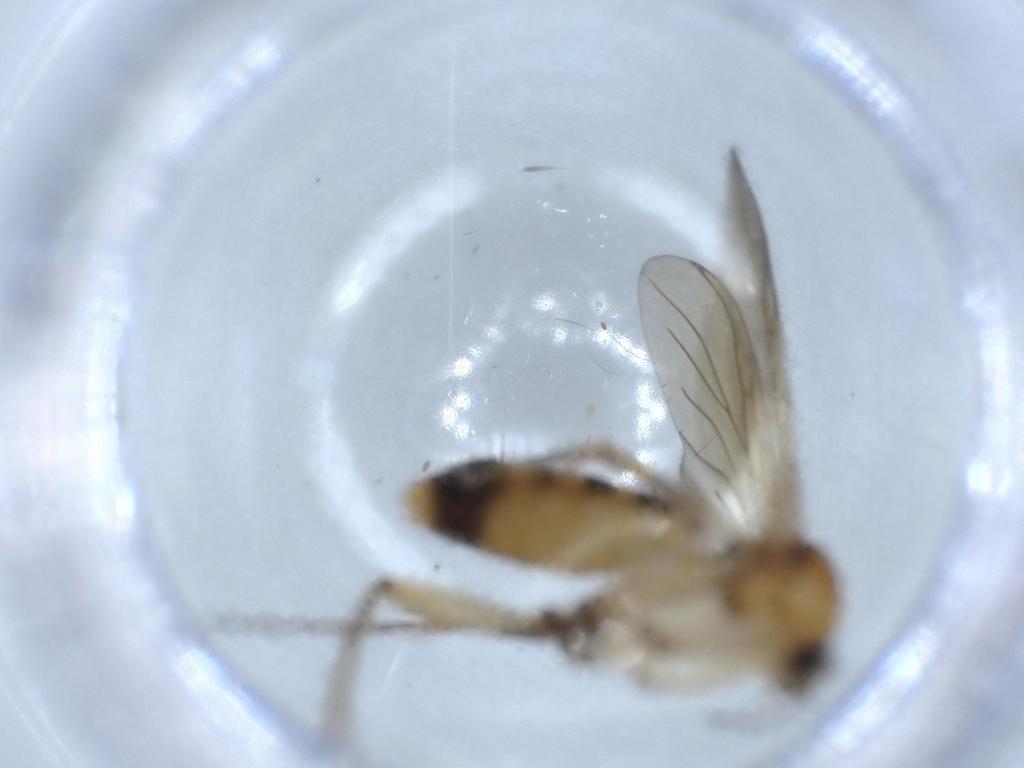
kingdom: Animalia
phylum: Arthropoda
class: Insecta
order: Diptera
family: Mycetophilidae
